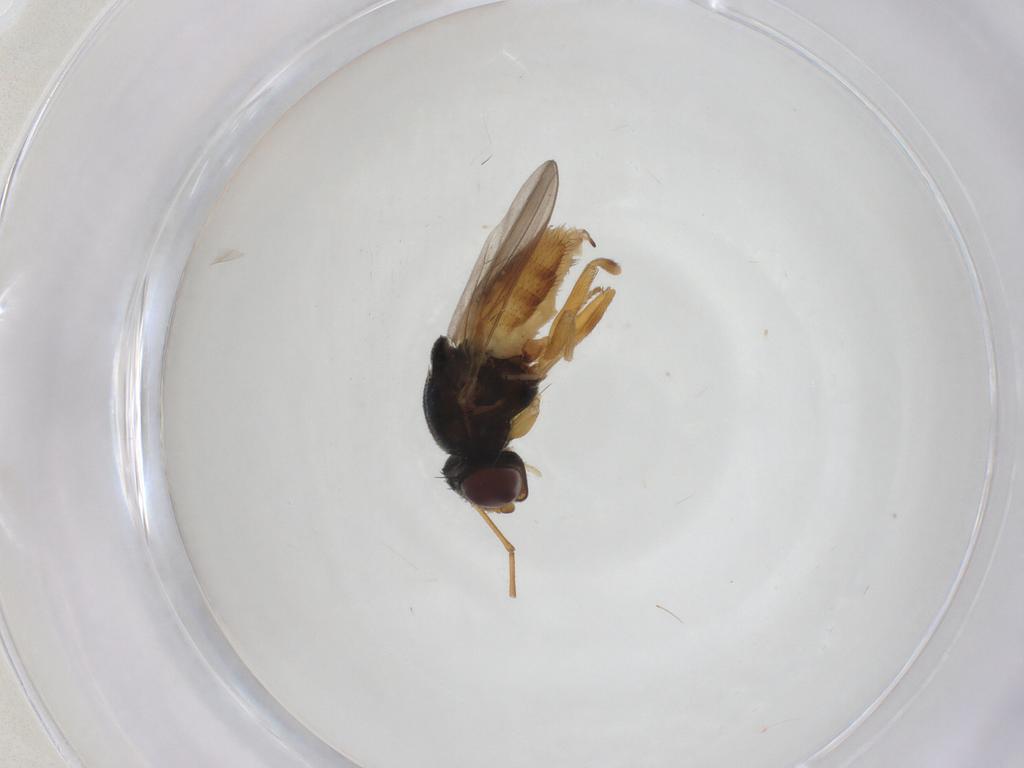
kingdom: Animalia
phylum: Arthropoda
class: Insecta
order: Diptera
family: Chloropidae
